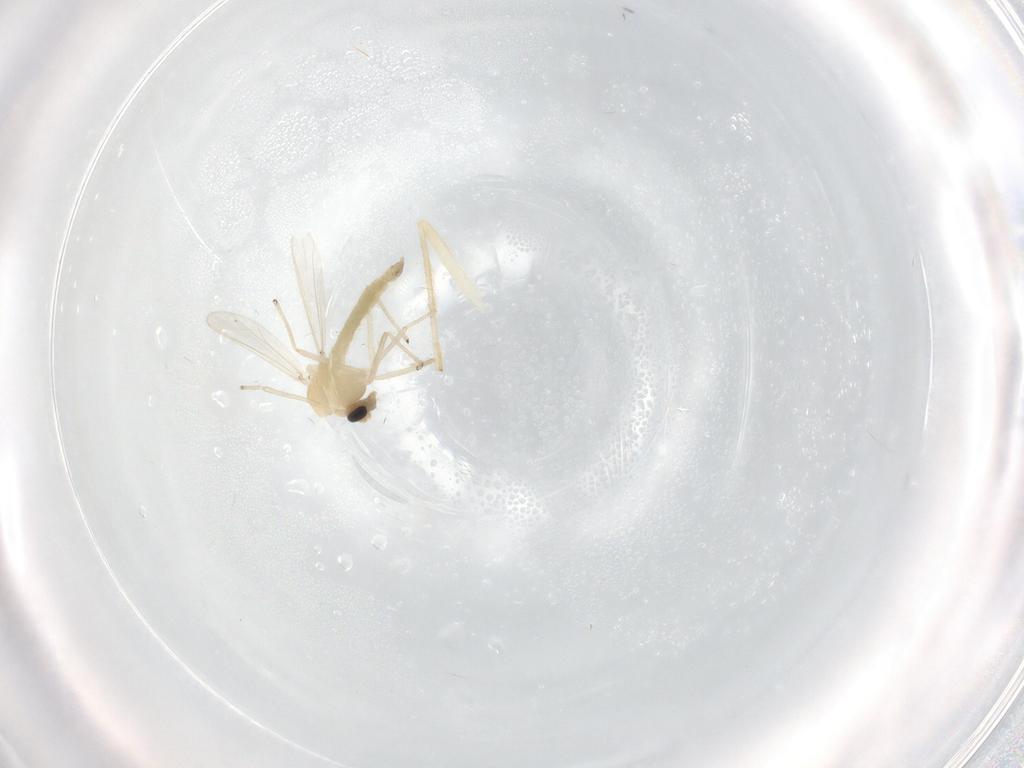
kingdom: Animalia
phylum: Arthropoda
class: Insecta
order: Diptera
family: Chironomidae
